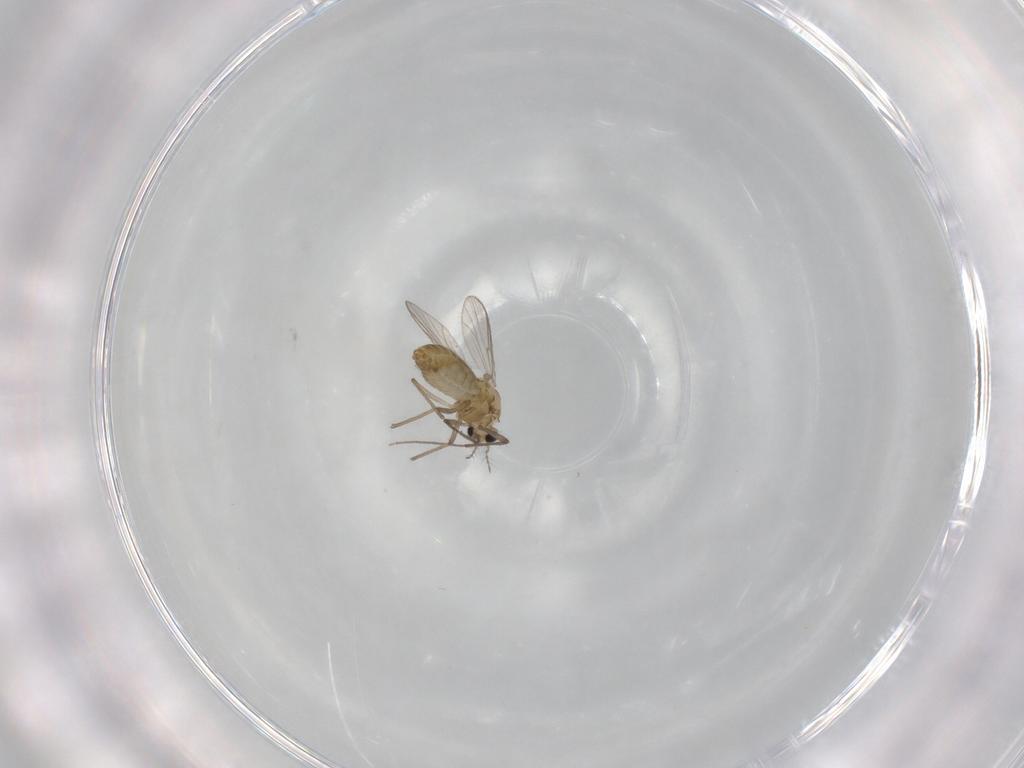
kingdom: Animalia
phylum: Arthropoda
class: Insecta
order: Diptera
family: Chironomidae
